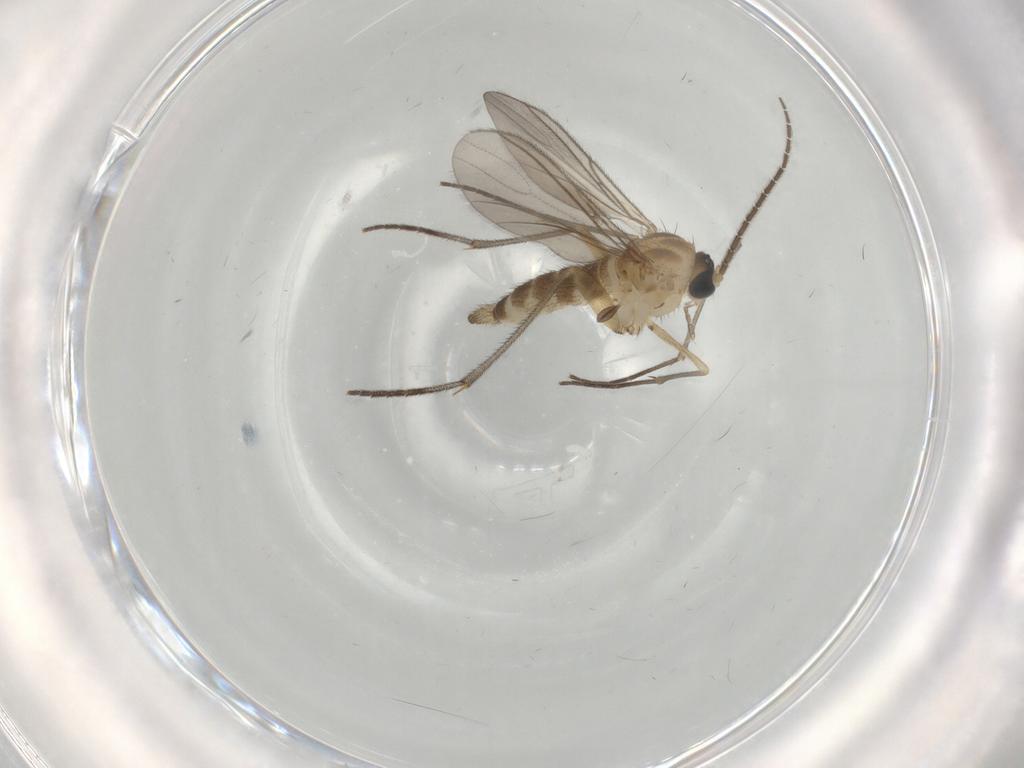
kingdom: Animalia
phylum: Arthropoda
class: Insecta
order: Diptera
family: Sciaridae
